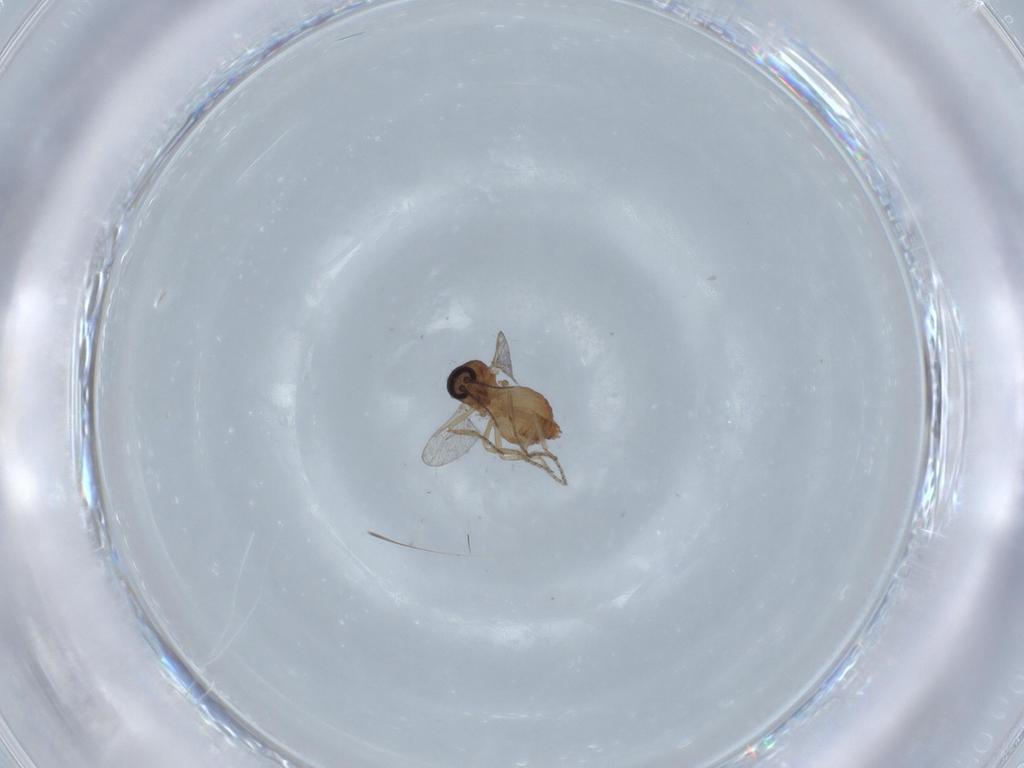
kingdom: Animalia
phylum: Arthropoda
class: Insecta
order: Diptera
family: Ceratopogonidae
